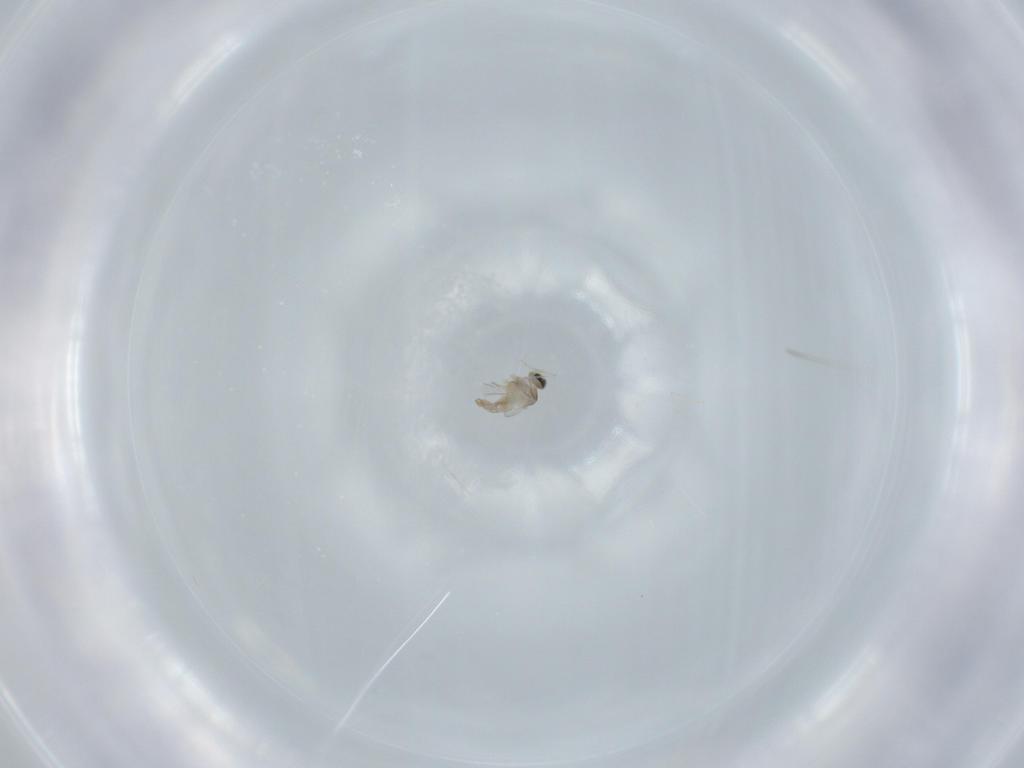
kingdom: Animalia
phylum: Arthropoda
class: Insecta
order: Diptera
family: Cecidomyiidae
